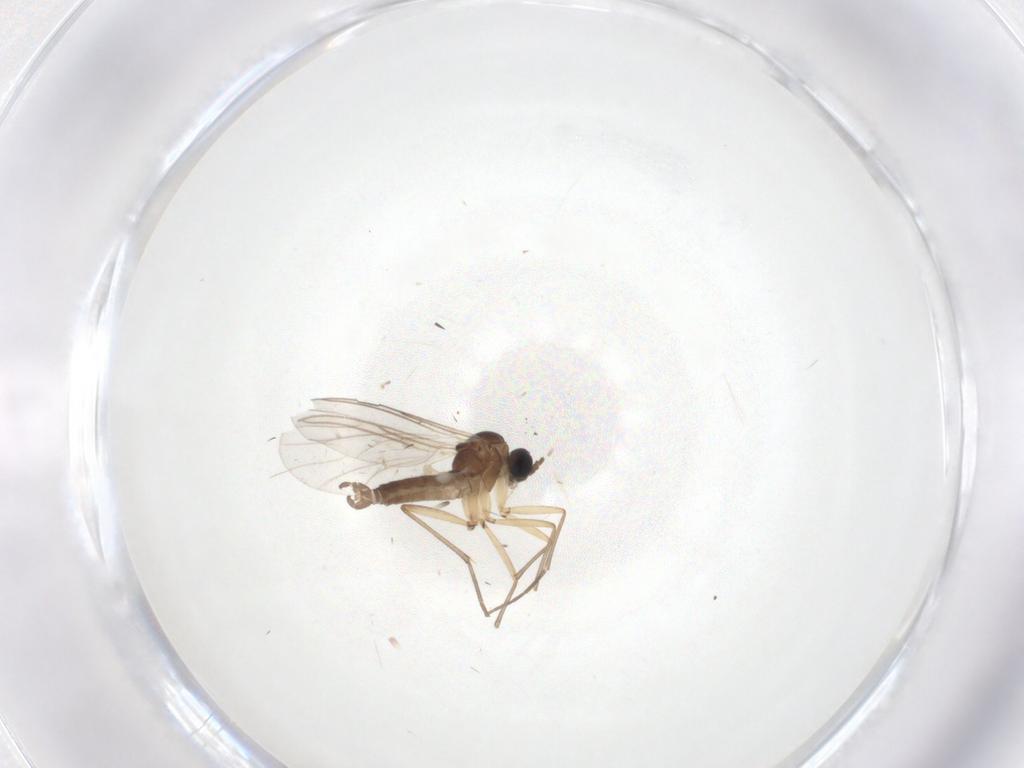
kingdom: Animalia
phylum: Arthropoda
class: Insecta
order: Diptera
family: Sciaridae
